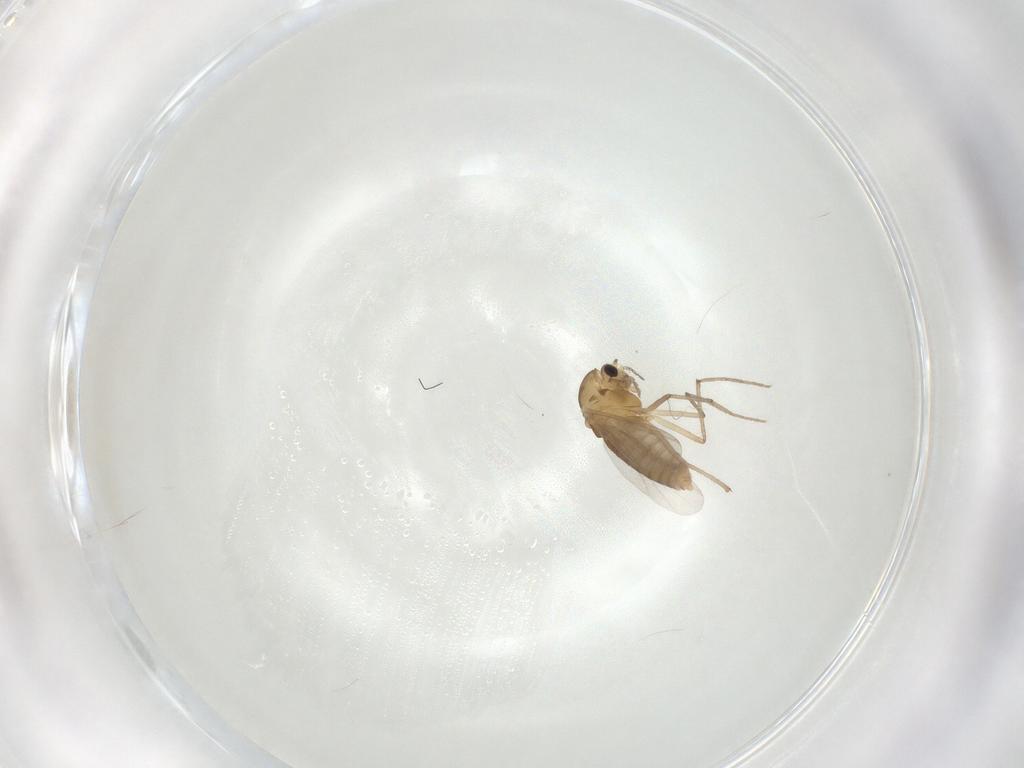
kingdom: Animalia
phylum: Arthropoda
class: Insecta
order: Diptera
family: Chironomidae
